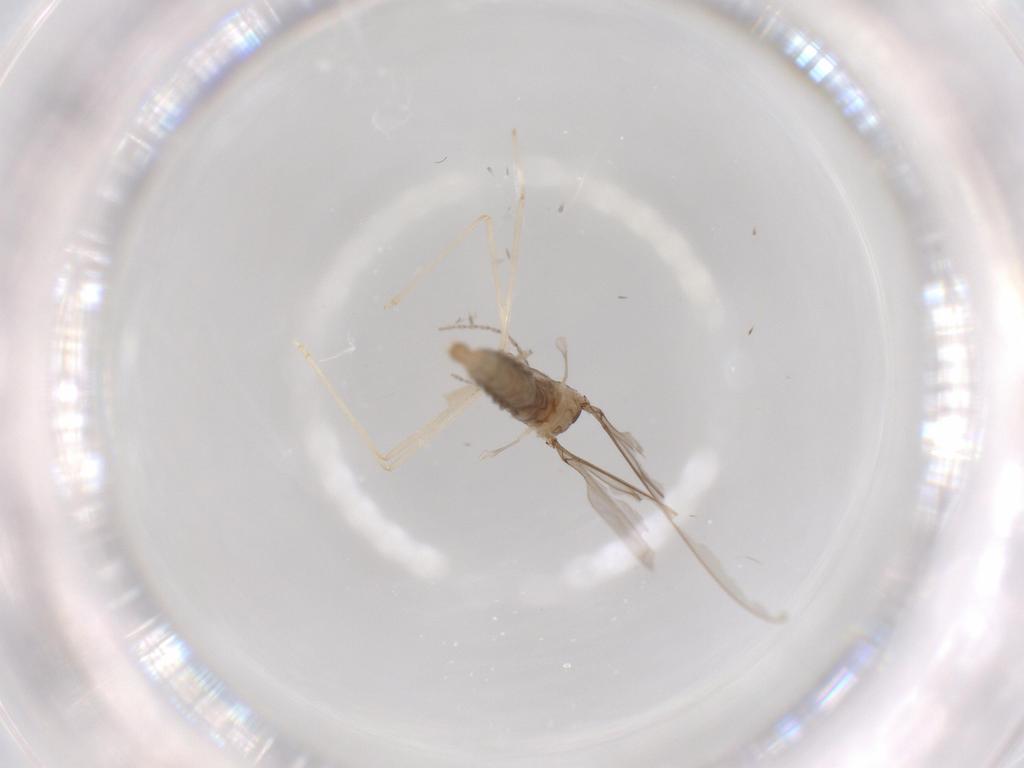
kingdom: Animalia
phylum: Arthropoda
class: Insecta
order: Diptera
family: Cecidomyiidae
